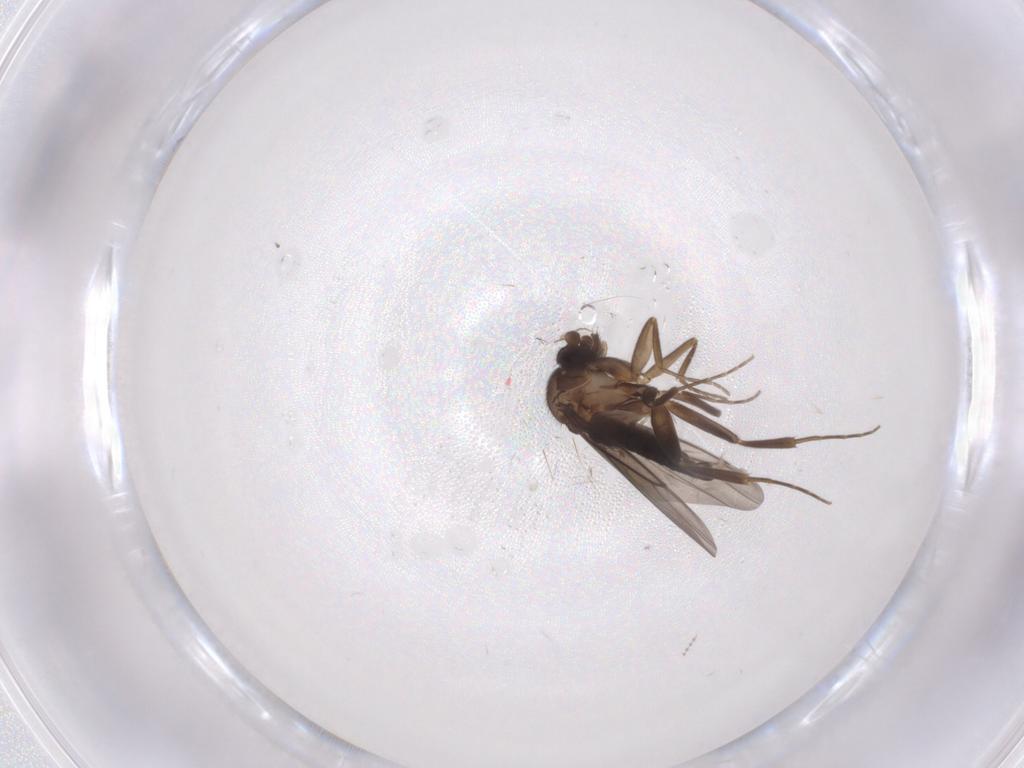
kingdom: Animalia
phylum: Arthropoda
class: Insecta
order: Diptera
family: Phoridae
